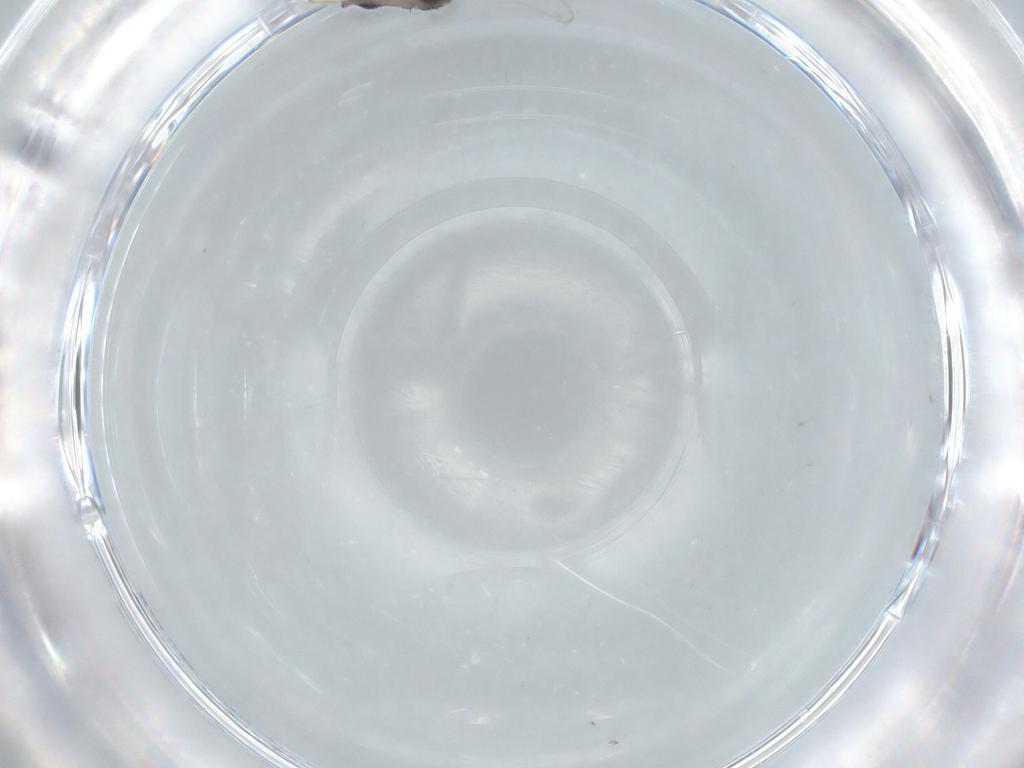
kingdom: Animalia
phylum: Arthropoda
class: Insecta
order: Diptera
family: Phoridae
